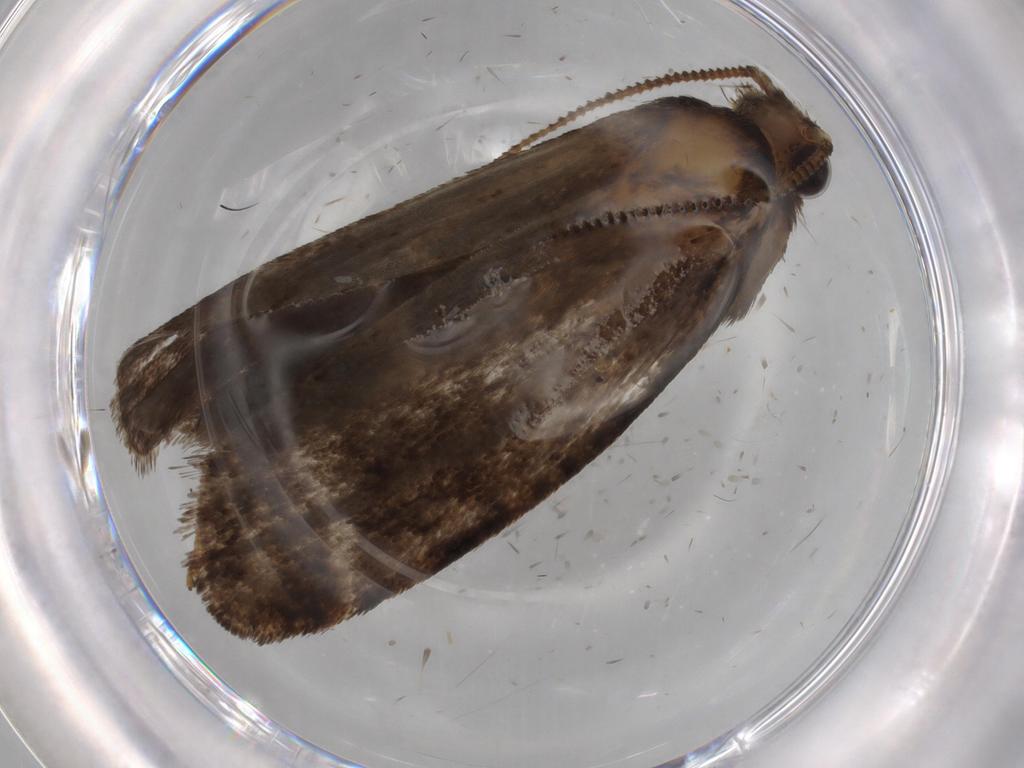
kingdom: Animalia
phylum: Arthropoda
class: Insecta
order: Lepidoptera
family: Tineidae
